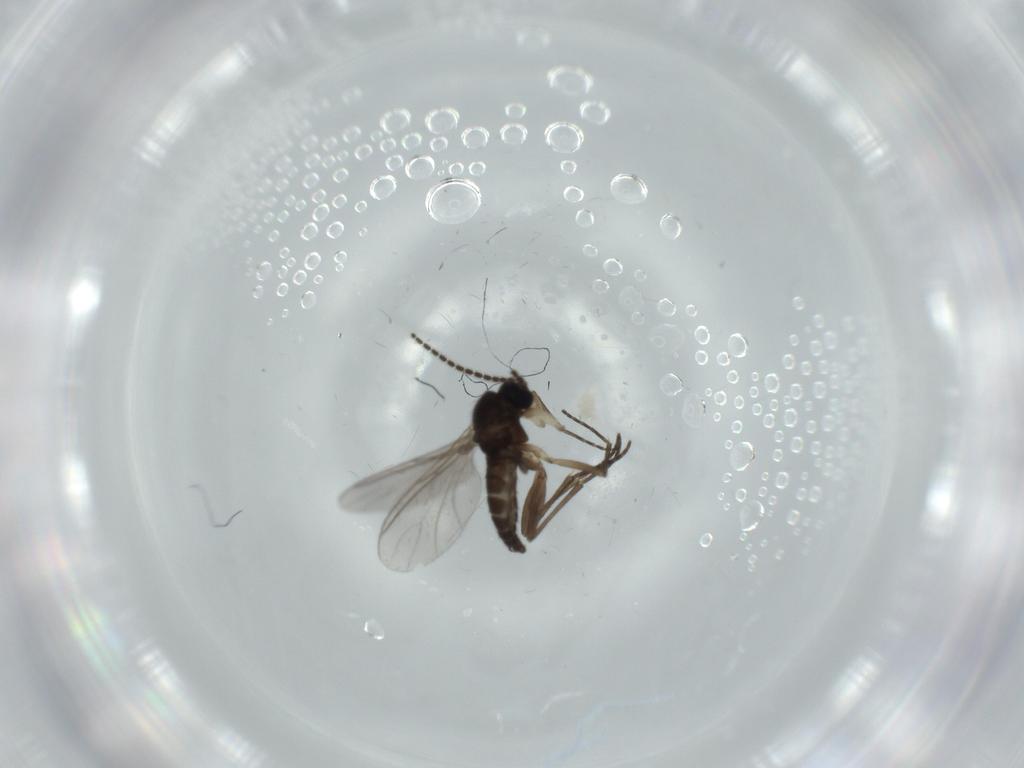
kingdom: Animalia
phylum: Arthropoda
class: Insecta
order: Diptera
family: Sciaridae
